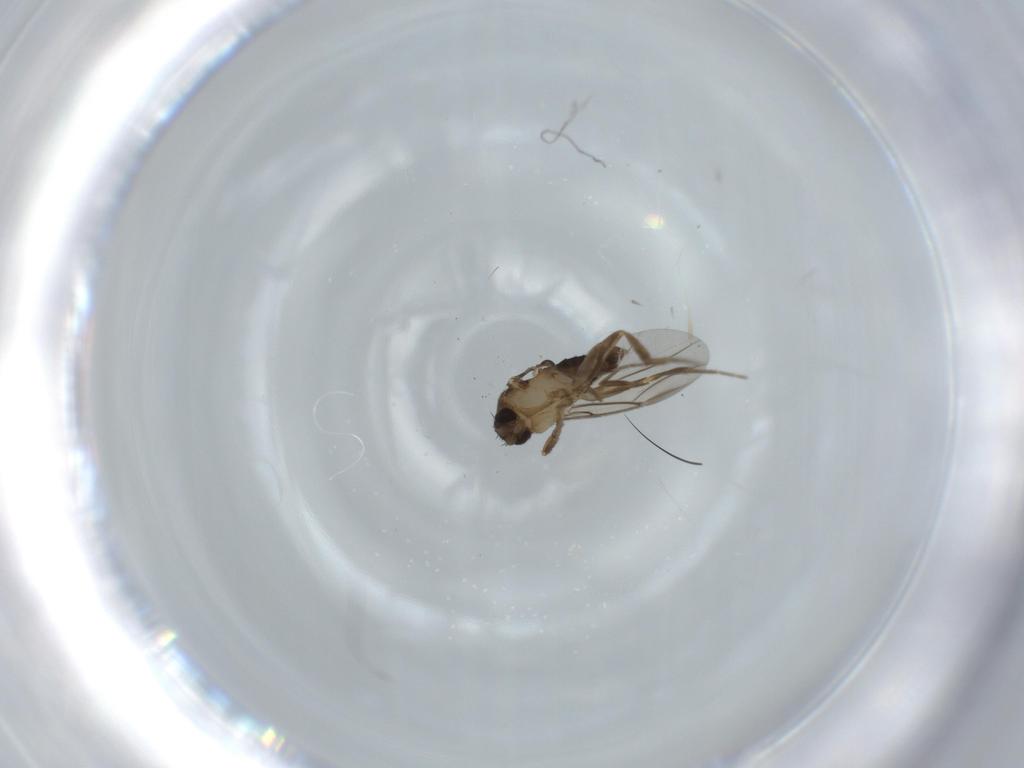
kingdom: Animalia
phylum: Arthropoda
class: Insecta
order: Diptera
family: Phoridae
